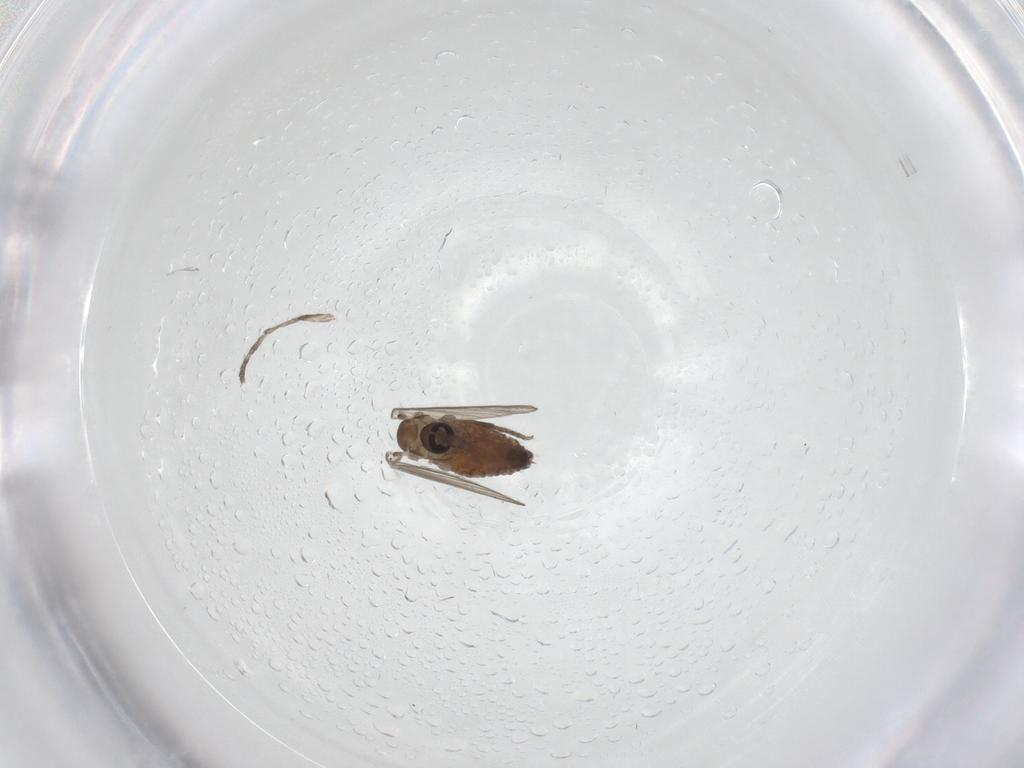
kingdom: Animalia
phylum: Arthropoda
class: Insecta
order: Diptera
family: Psychodidae
